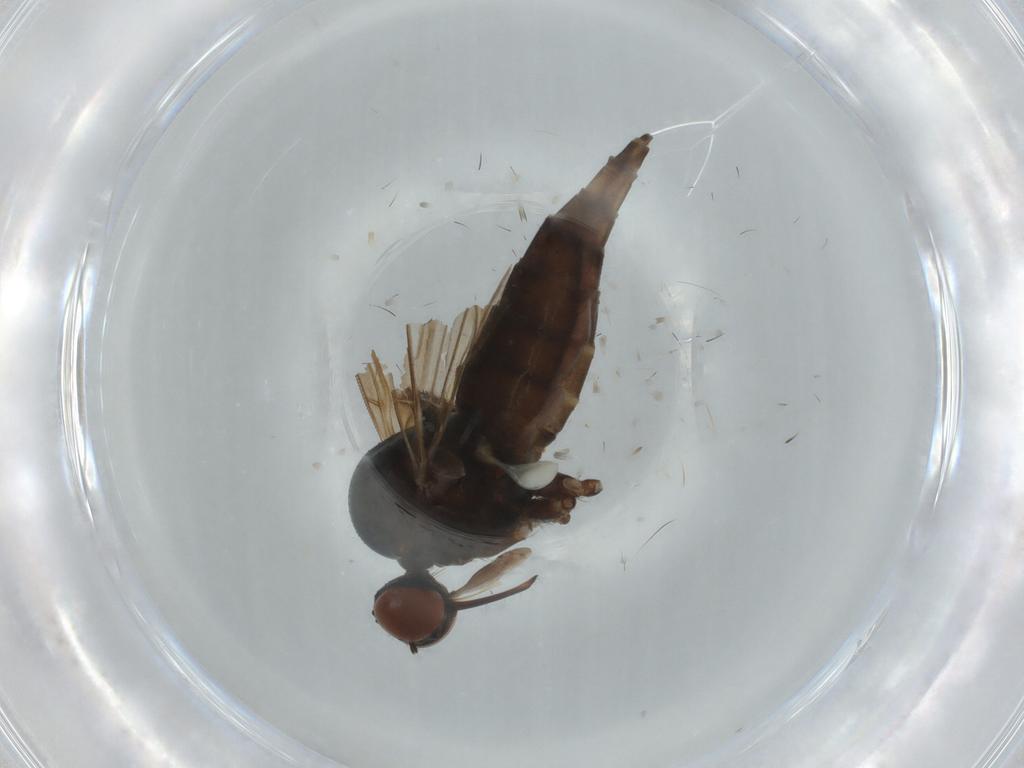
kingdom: Animalia
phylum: Arthropoda
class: Insecta
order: Diptera
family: Empididae
